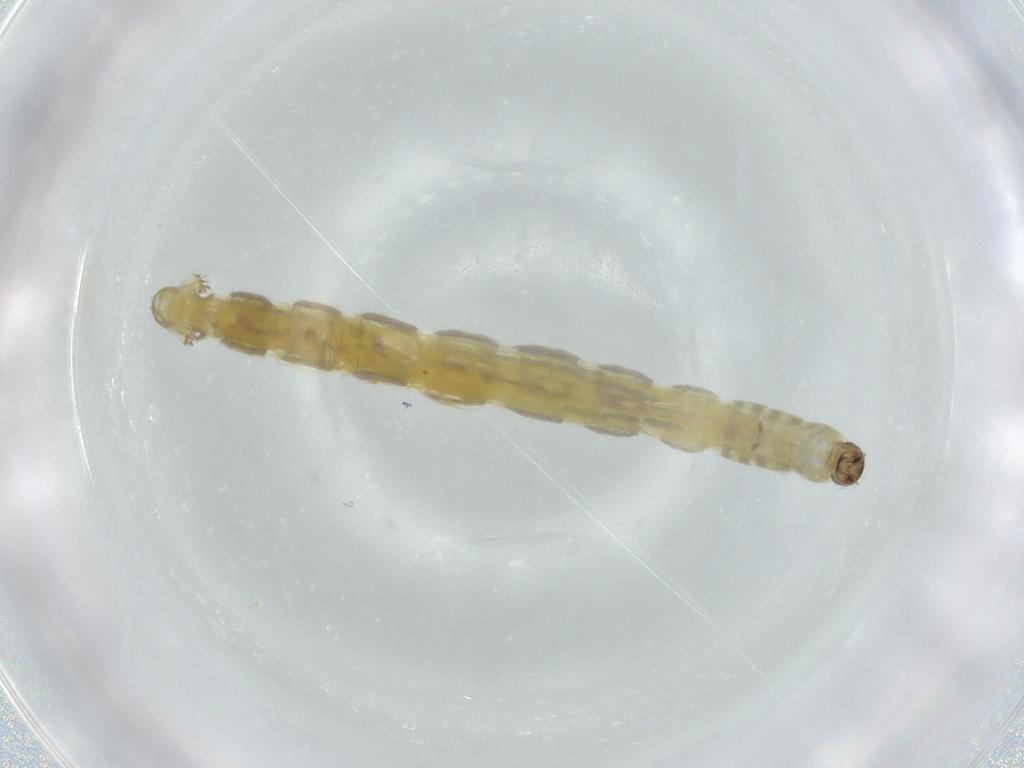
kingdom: Animalia
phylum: Arthropoda
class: Insecta
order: Diptera
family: Chironomidae
